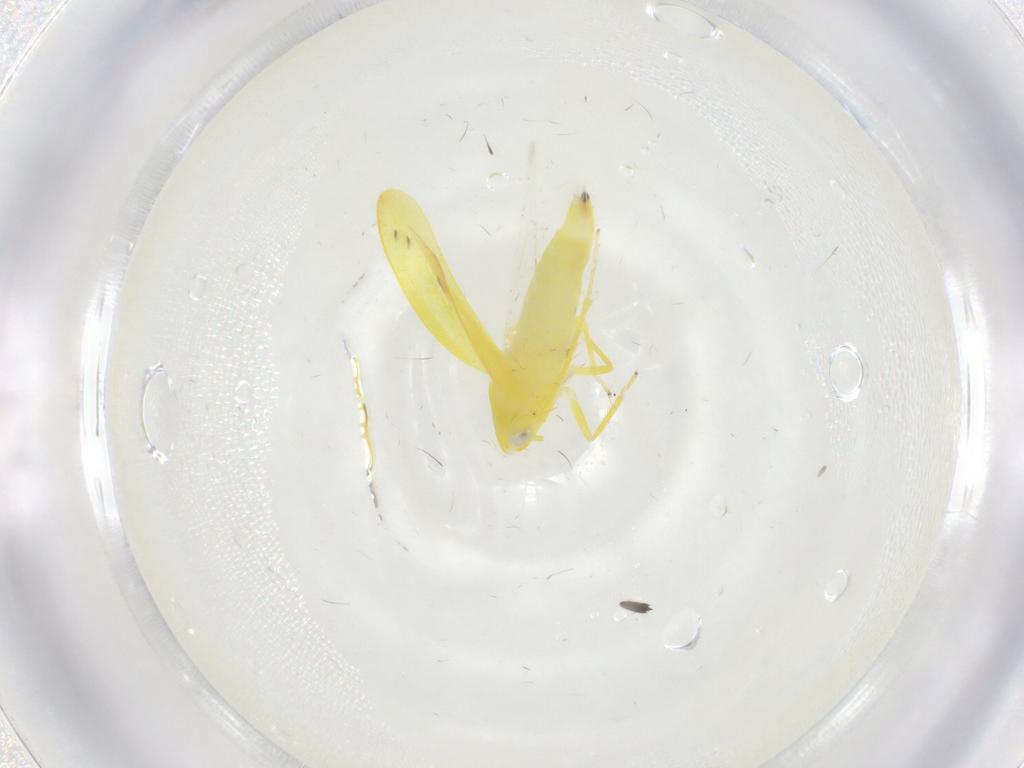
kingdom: Animalia
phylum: Arthropoda
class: Insecta
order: Hemiptera
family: Cicadellidae
